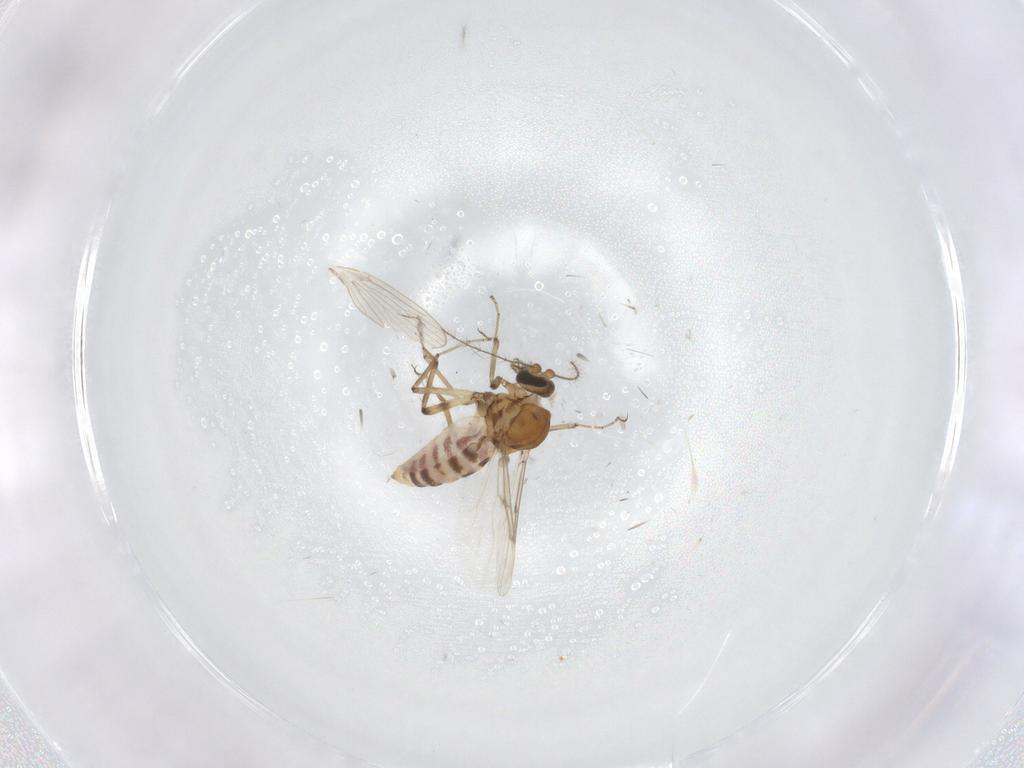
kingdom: Animalia
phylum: Arthropoda
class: Insecta
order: Diptera
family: Ceratopogonidae
